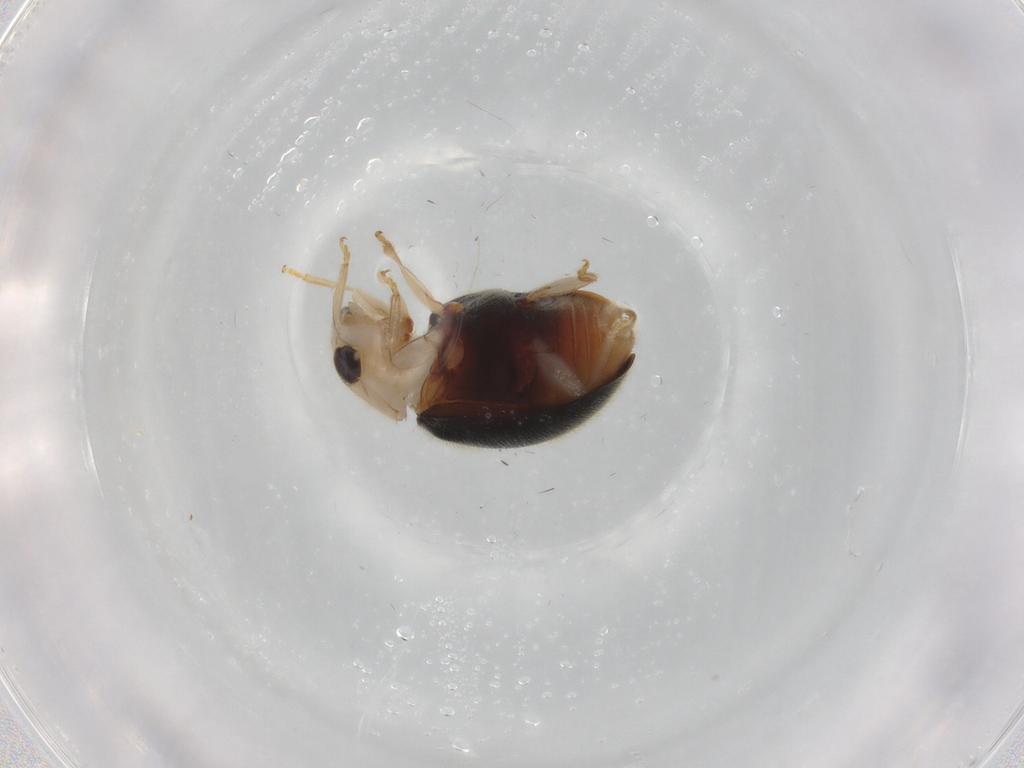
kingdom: Animalia
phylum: Arthropoda
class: Insecta
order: Coleoptera
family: Coccinellidae
